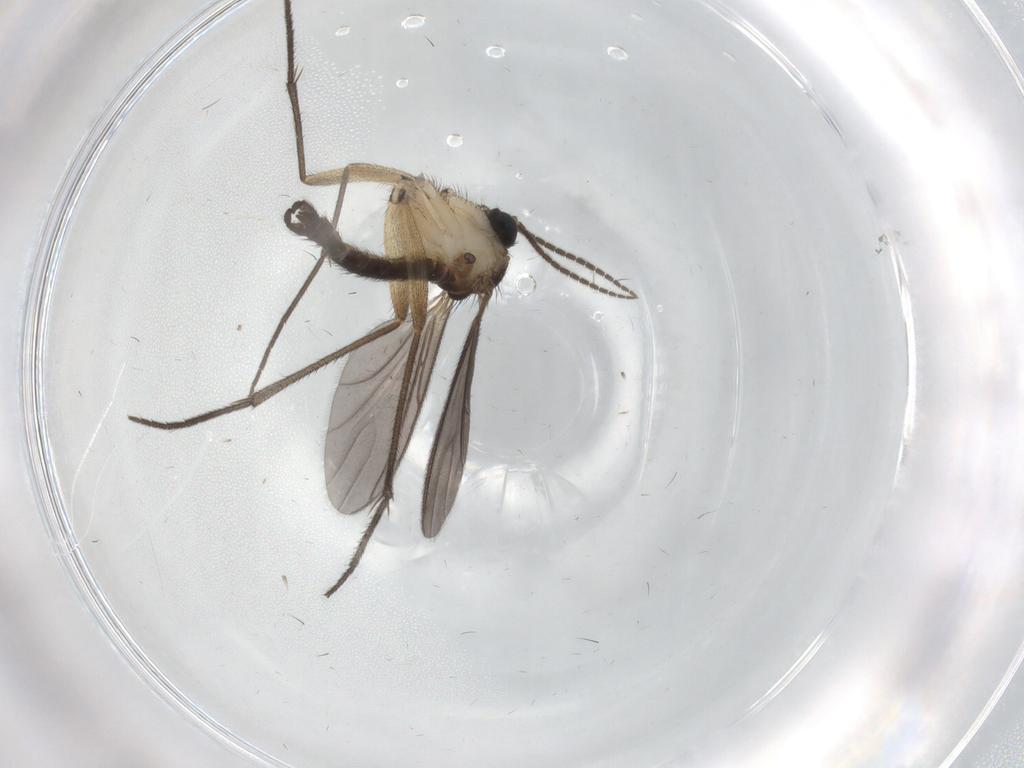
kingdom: Animalia
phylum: Arthropoda
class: Insecta
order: Diptera
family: Sciaridae
